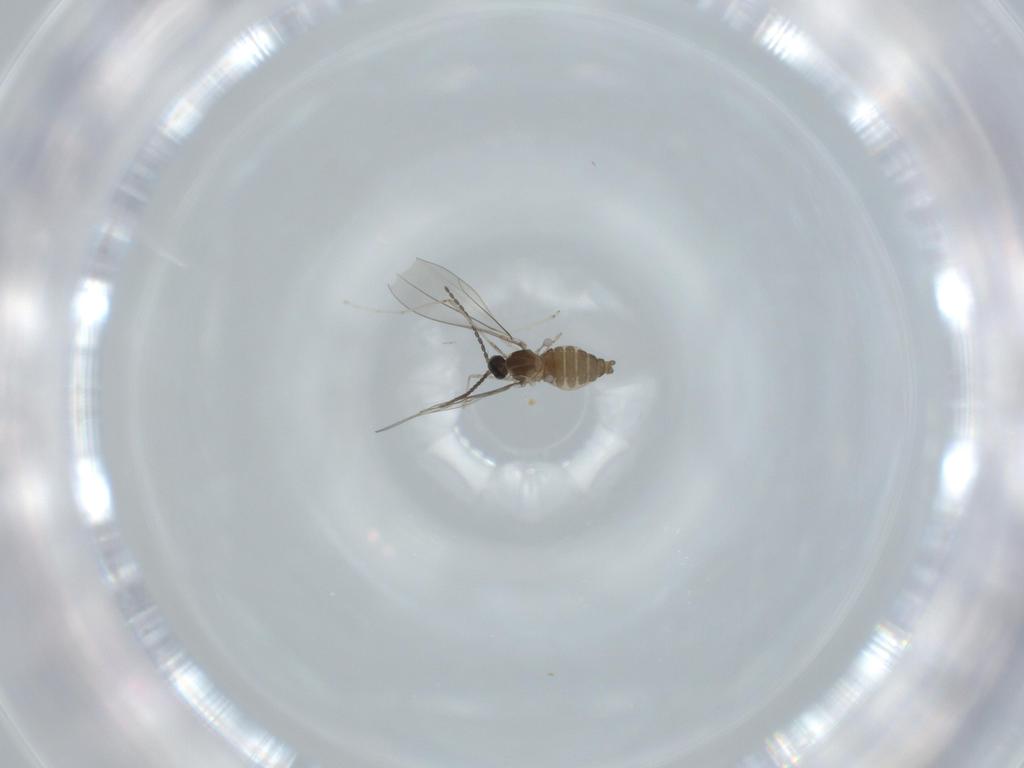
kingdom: Animalia
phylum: Arthropoda
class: Insecta
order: Diptera
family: Cecidomyiidae
